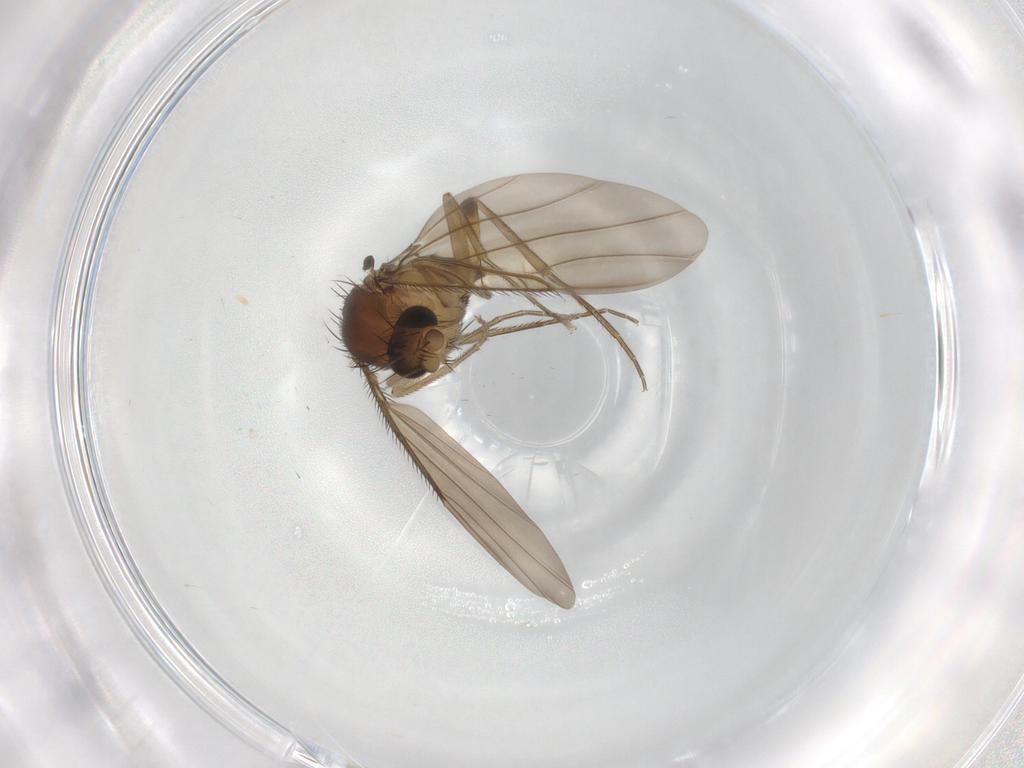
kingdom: Animalia
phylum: Arthropoda
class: Insecta
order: Diptera
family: Phoridae
